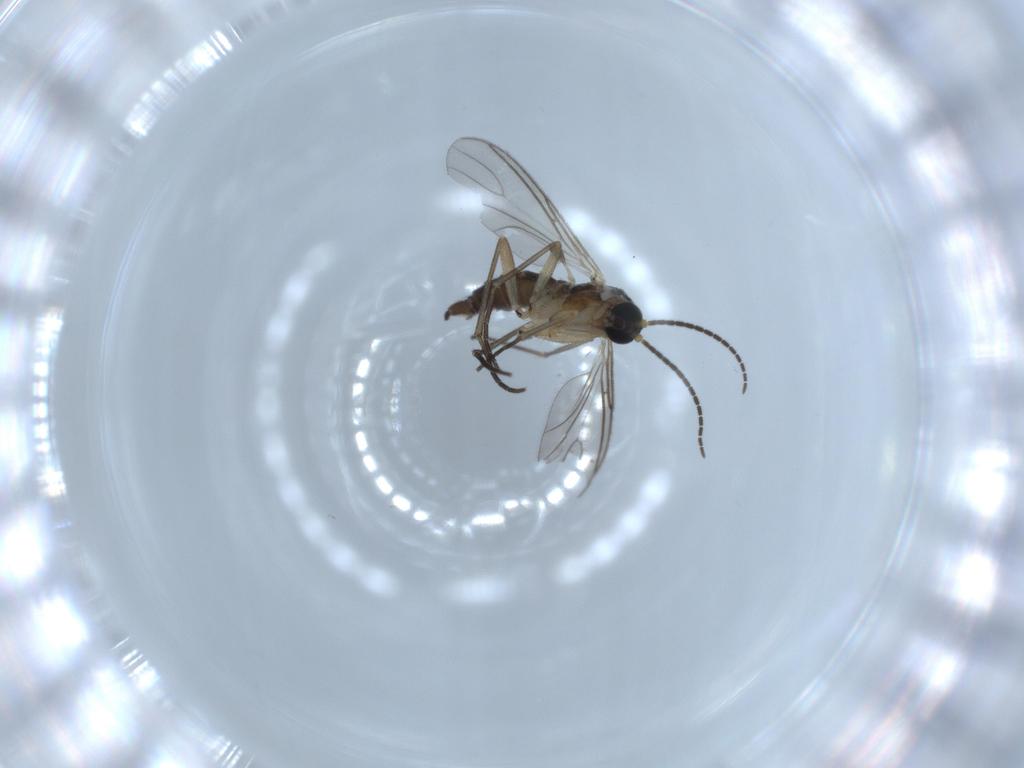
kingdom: Animalia
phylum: Arthropoda
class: Insecta
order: Diptera
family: Sciaridae
